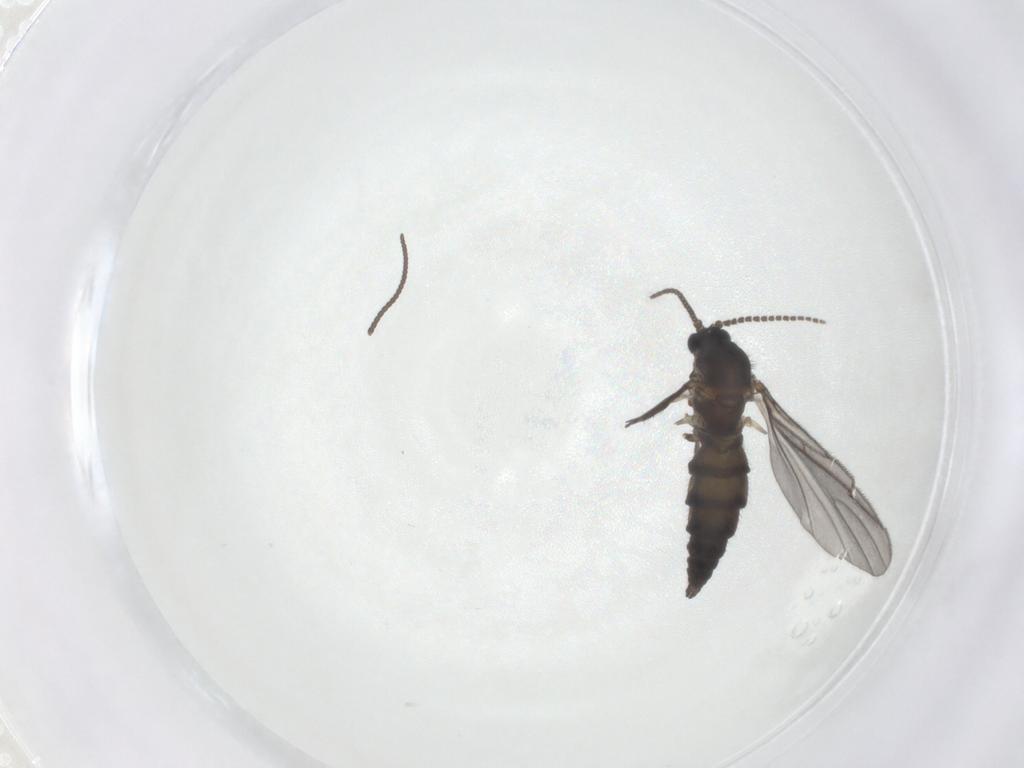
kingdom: Animalia
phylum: Arthropoda
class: Insecta
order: Diptera
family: Sciaridae
